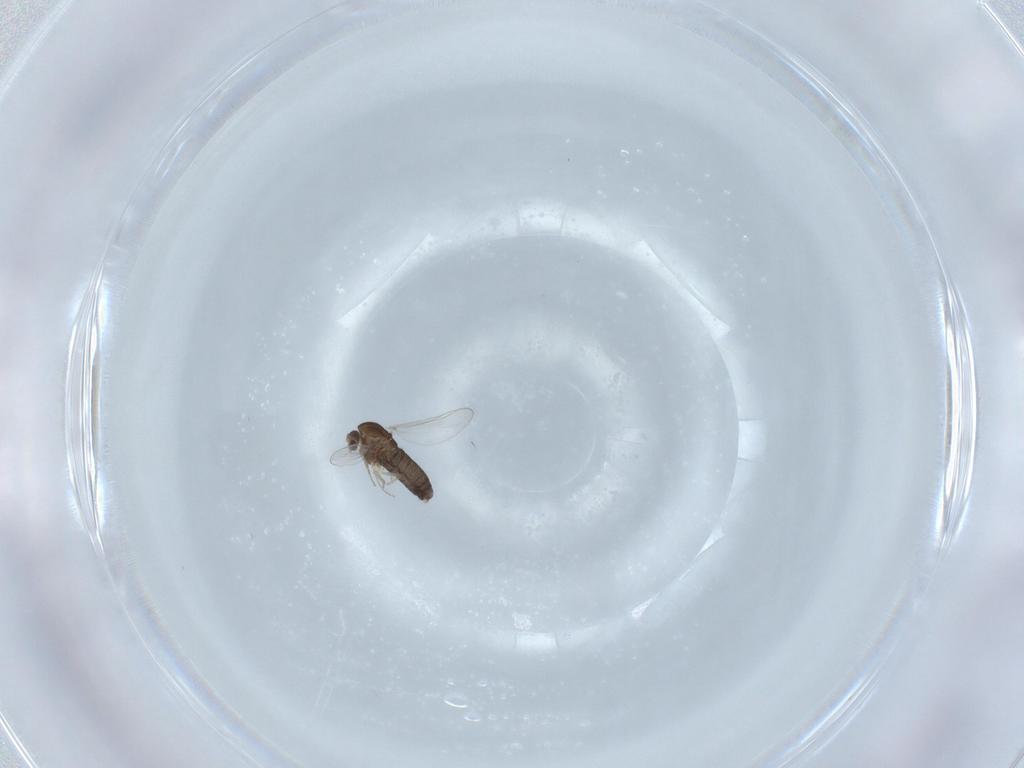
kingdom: Animalia
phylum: Arthropoda
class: Insecta
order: Diptera
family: Chironomidae
